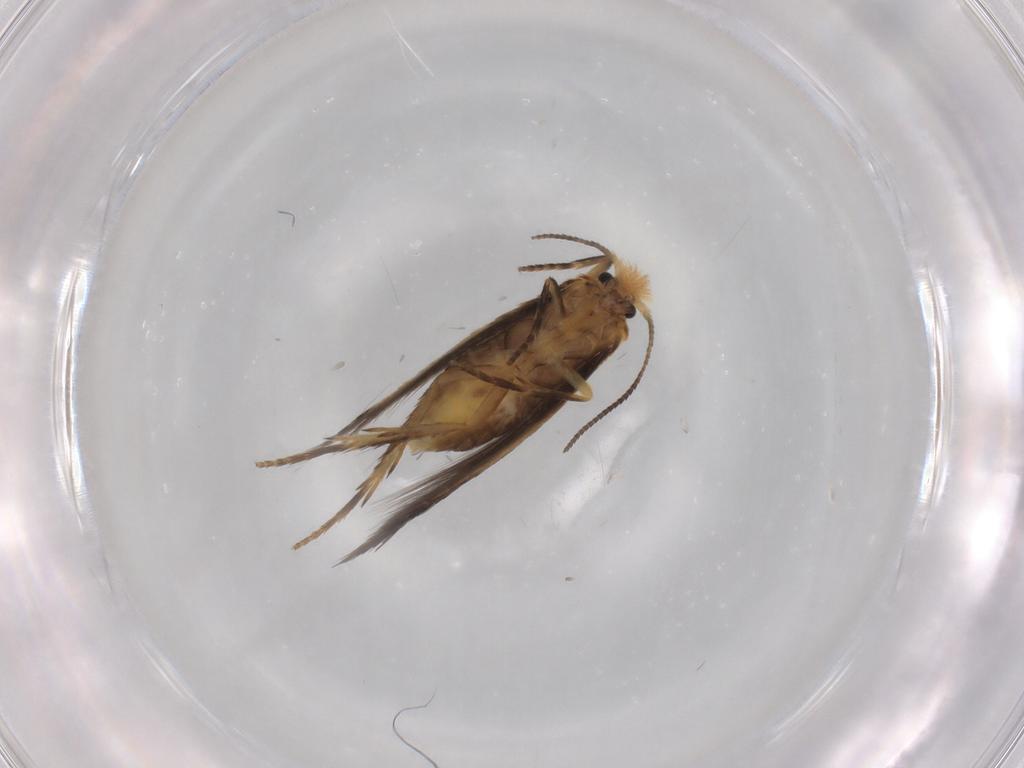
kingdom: Animalia
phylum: Arthropoda
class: Insecta
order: Lepidoptera
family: Nepticulidae
